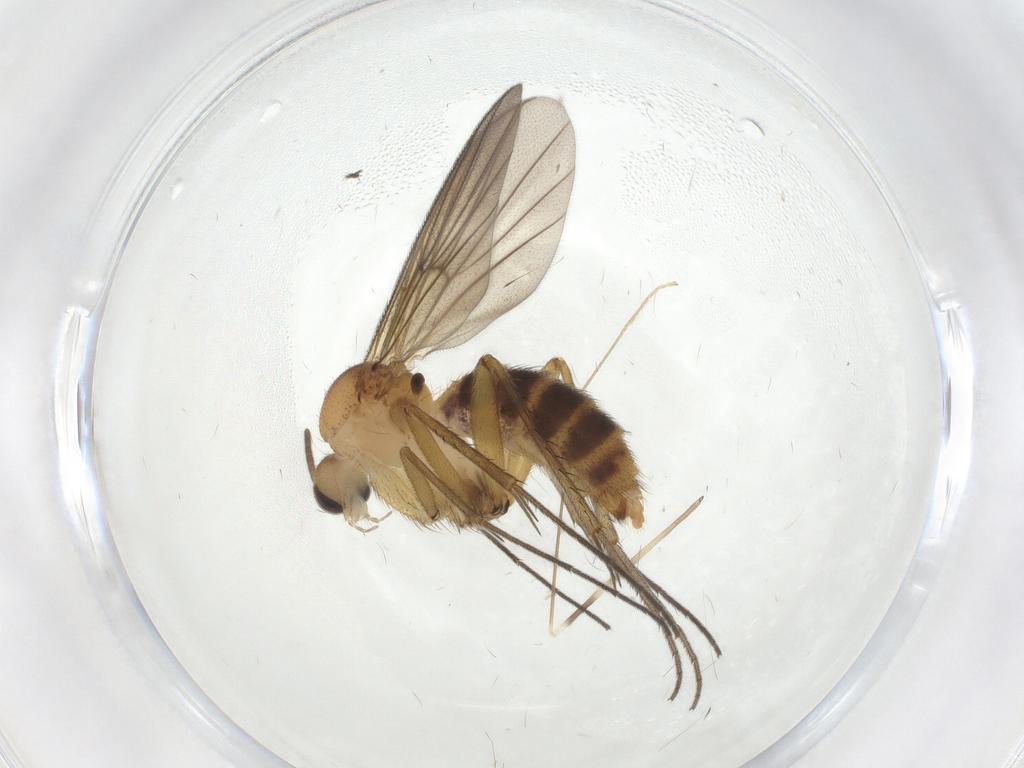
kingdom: Animalia
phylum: Arthropoda
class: Insecta
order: Diptera
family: Limoniidae
